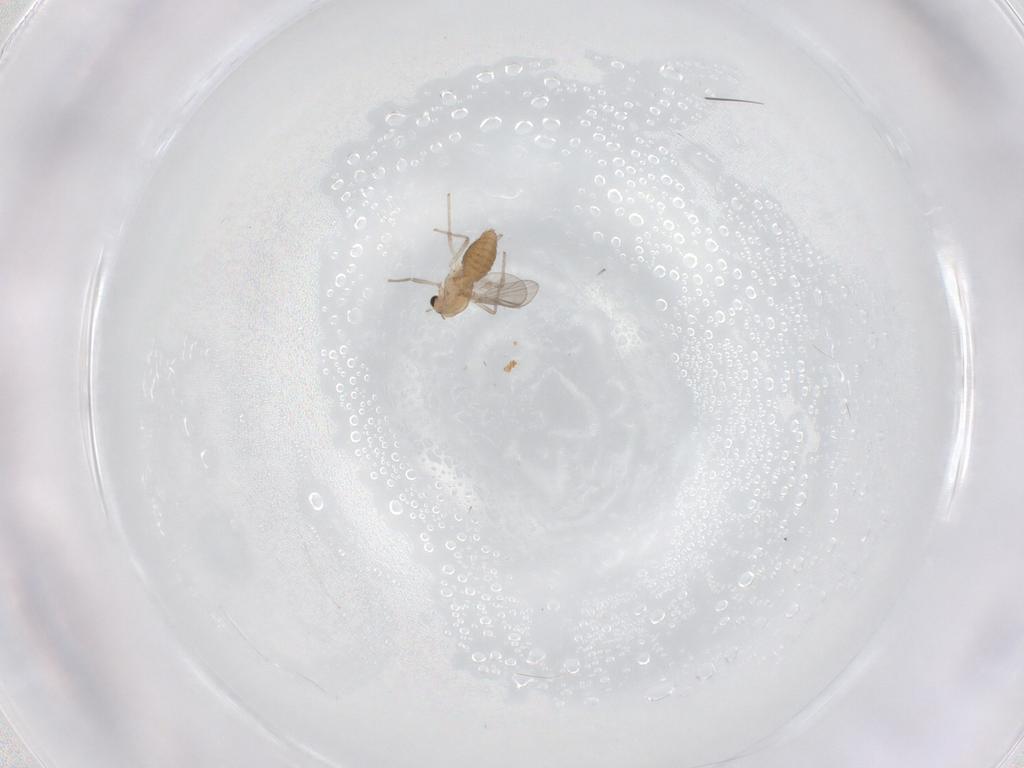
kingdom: Animalia
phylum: Arthropoda
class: Insecta
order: Diptera
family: Chironomidae
